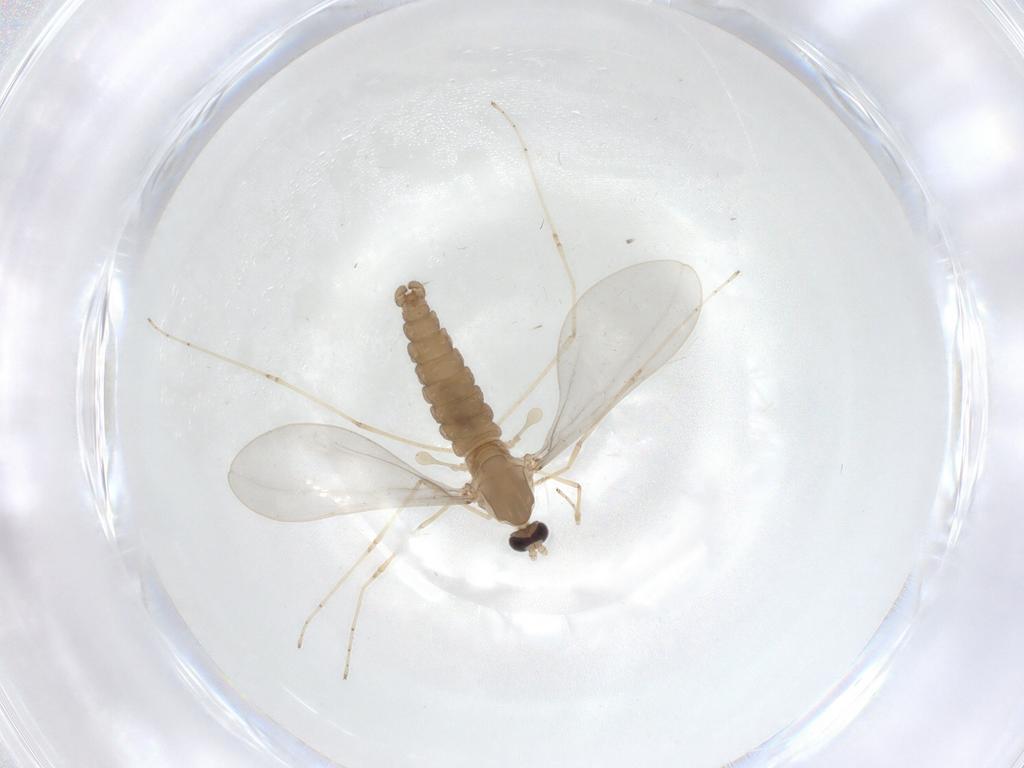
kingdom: Animalia
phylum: Arthropoda
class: Insecta
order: Diptera
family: Cecidomyiidae
